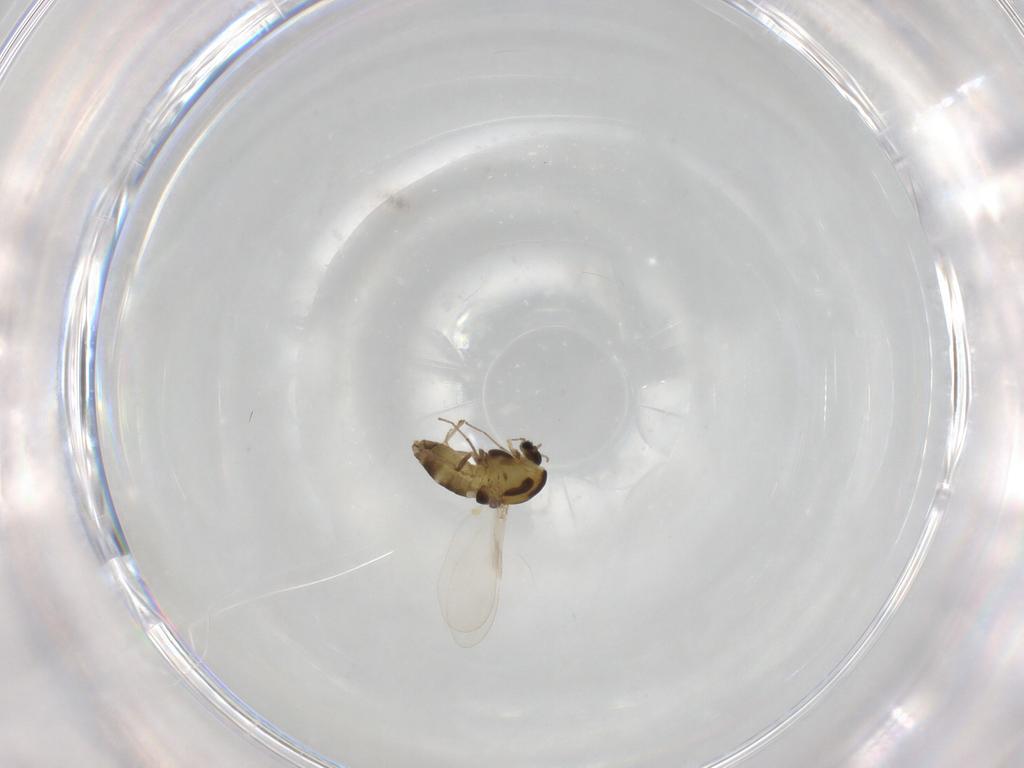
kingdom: Animalia
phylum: Arthropoda
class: Insecta
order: Diptera
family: Chironomidae
